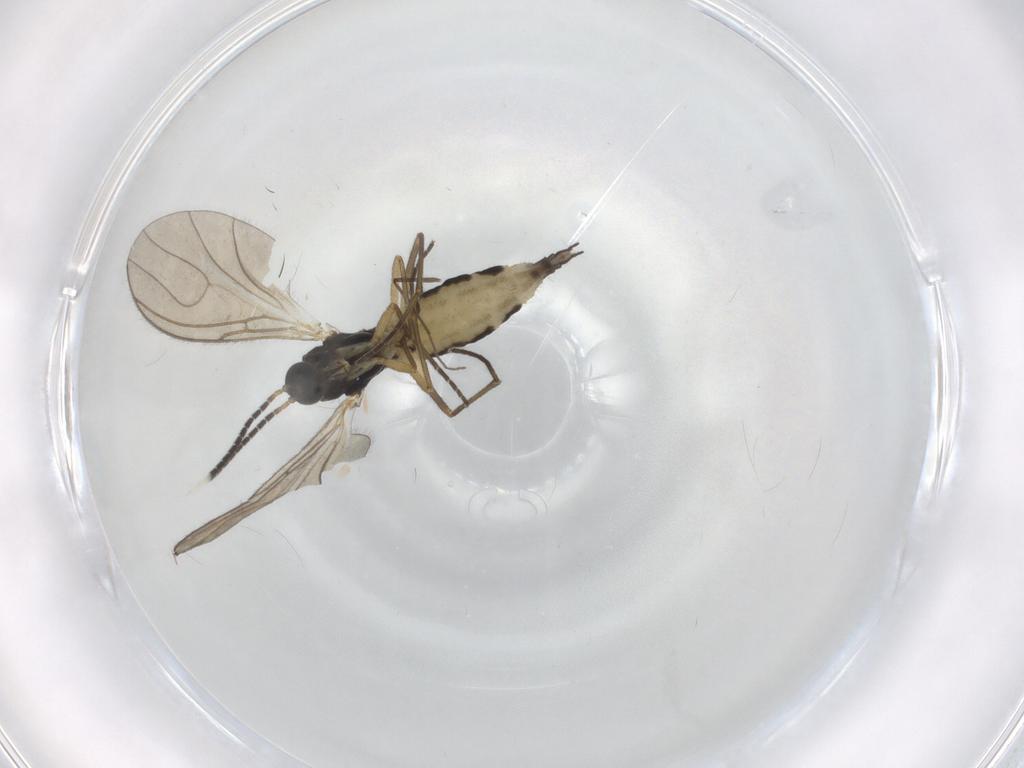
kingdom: Animalia
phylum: Arthropoda
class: Insecta
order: Diptera
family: Sciaridae
